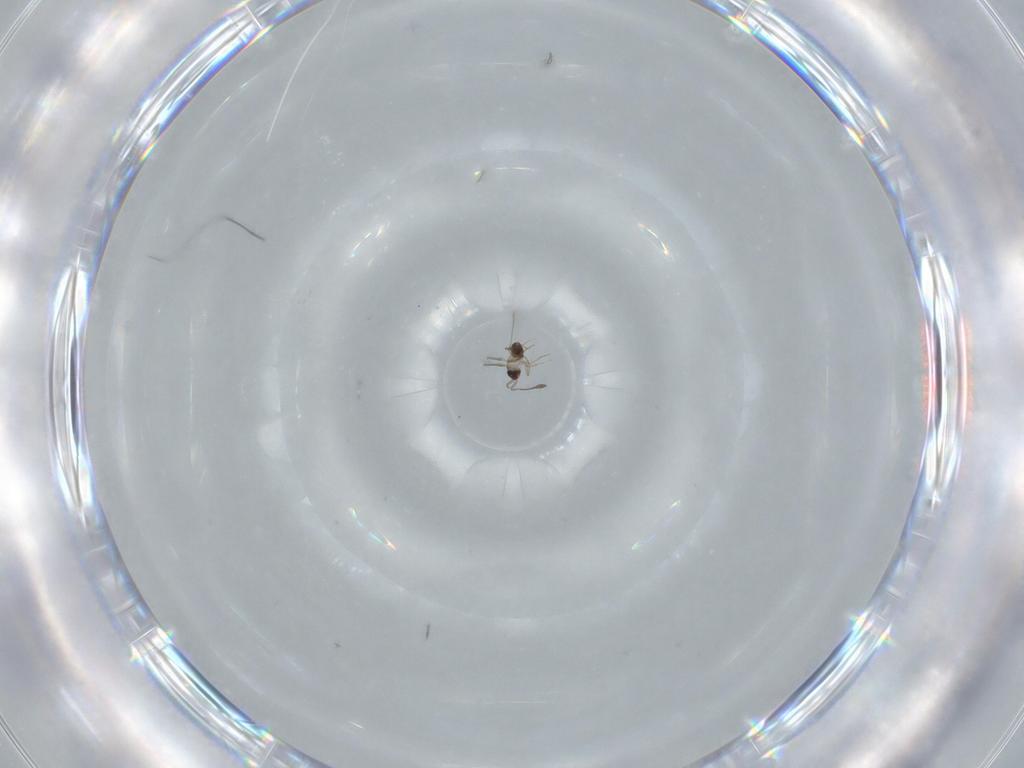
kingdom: Animalia
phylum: Arthropoda
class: Insecta
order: Hymenoptera
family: Mymaridae
